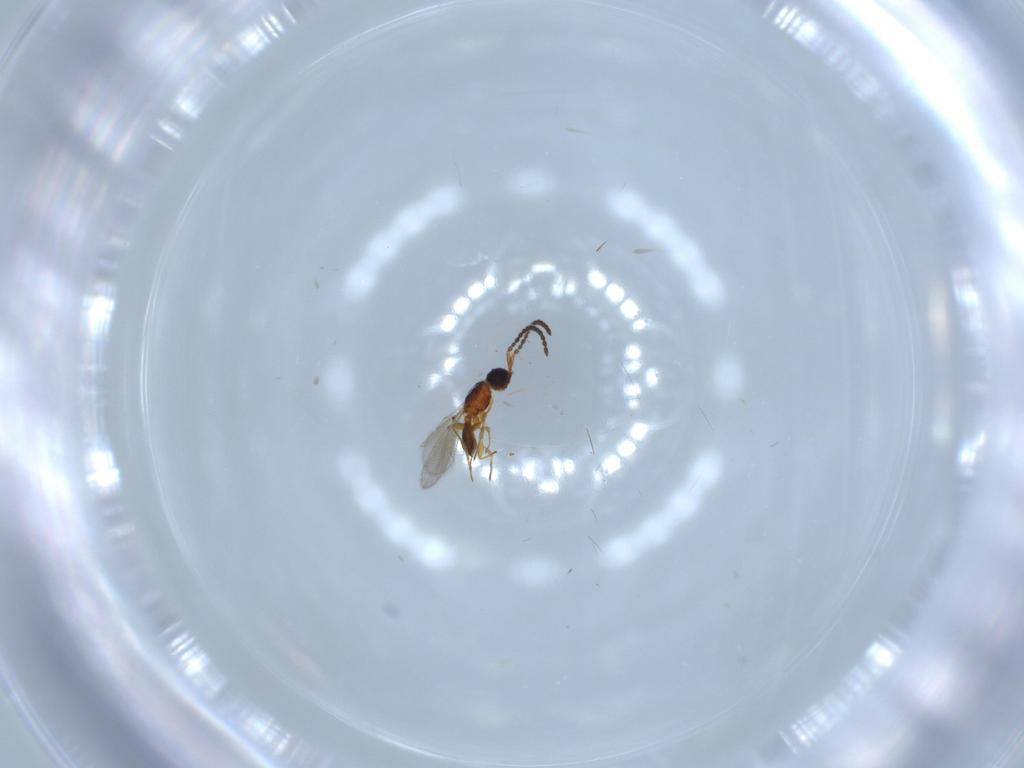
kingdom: Animalia
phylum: Arthropoda
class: Insecta
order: Hymenoptera
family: Diapriidae
